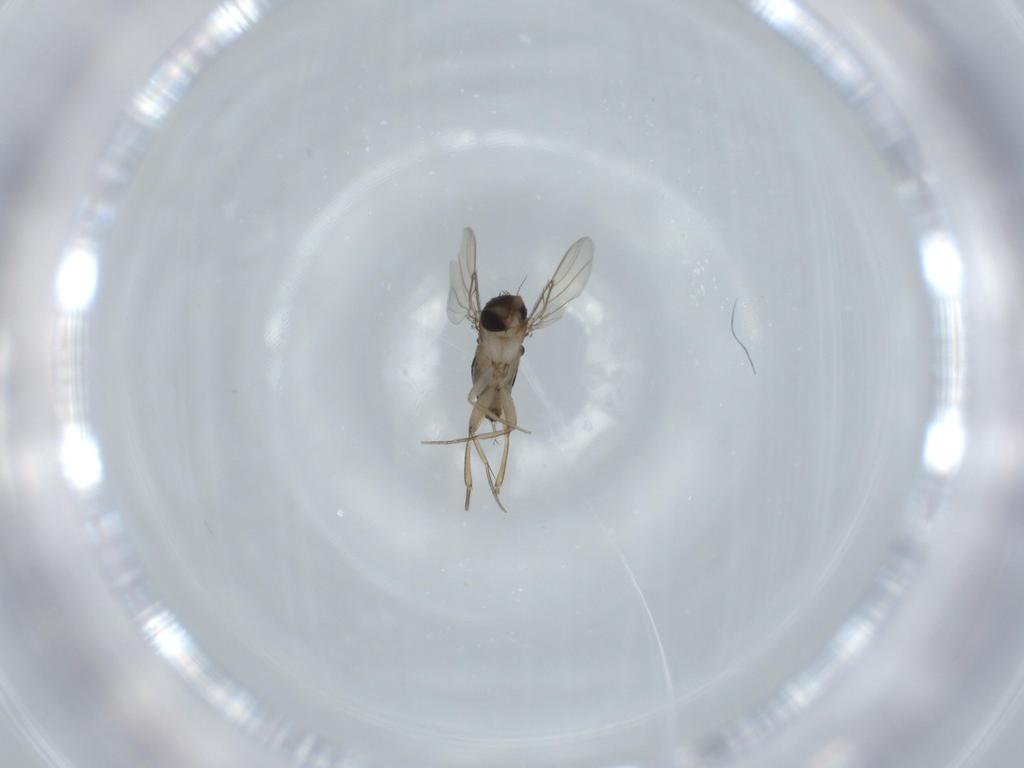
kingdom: Animalia
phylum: Arthropoda
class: Insecta
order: Diptera
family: Phoridae
